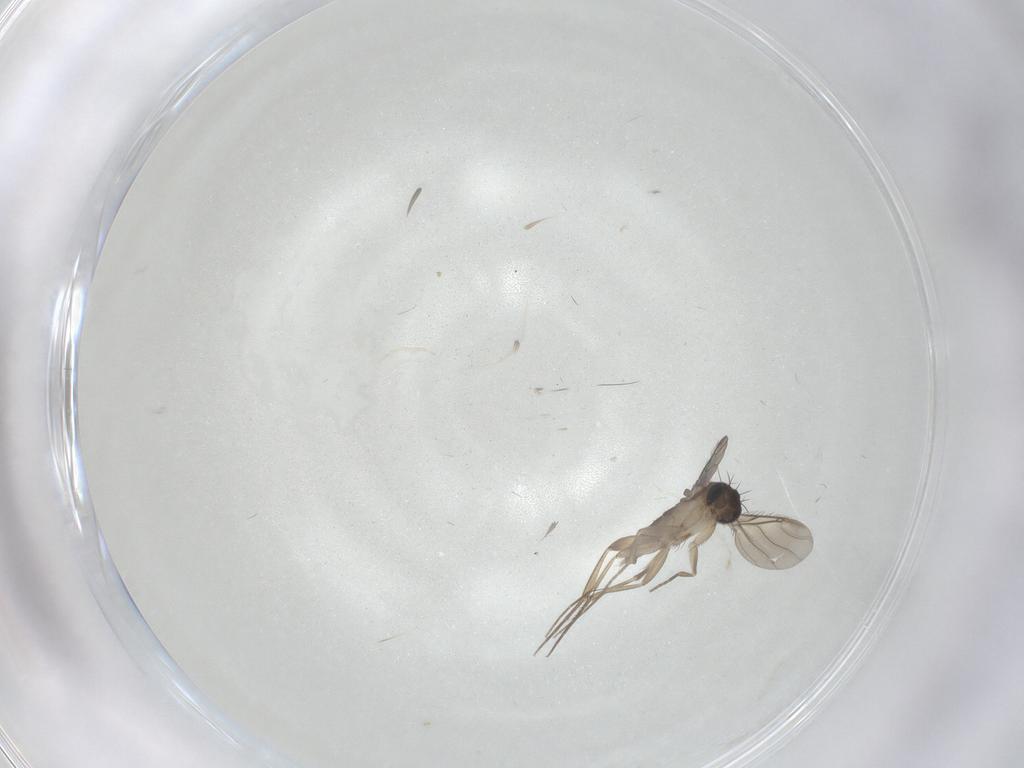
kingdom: Animalia
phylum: Arthropoda
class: Insecta
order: Diptera
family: Phoridae
